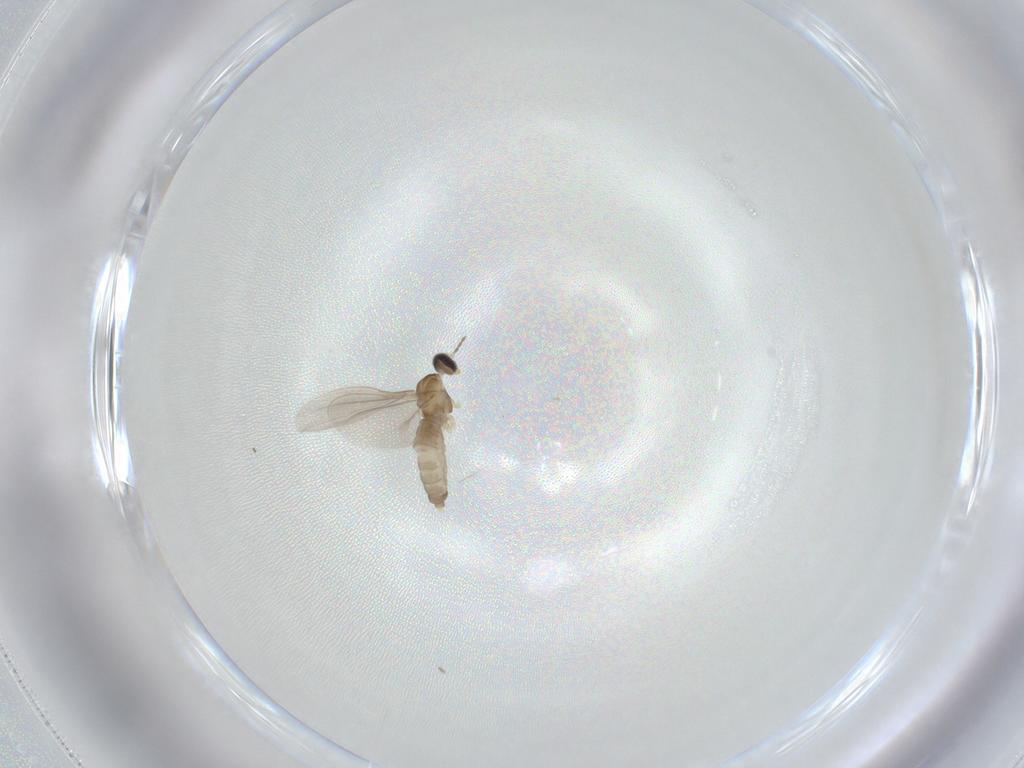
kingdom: Animalia
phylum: Arthropoda
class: Insecta
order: Diptera
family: Cecidomyiidae
